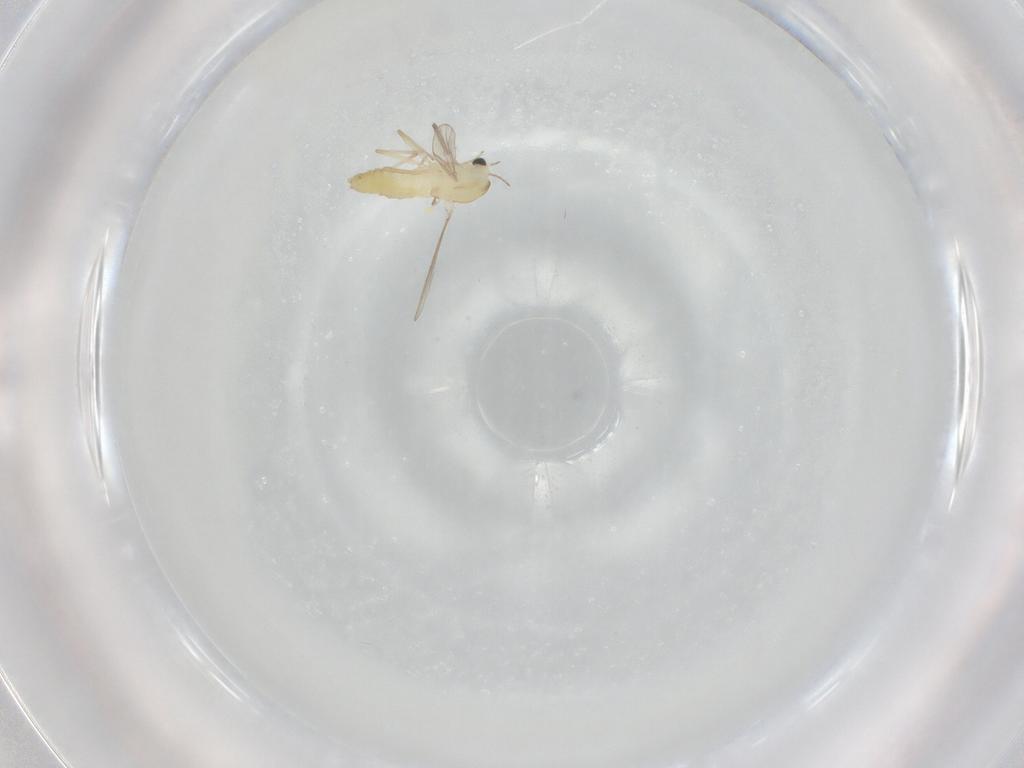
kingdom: Animalia
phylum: Arthropoda
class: Insecta
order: Diptera
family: Chironomidae
